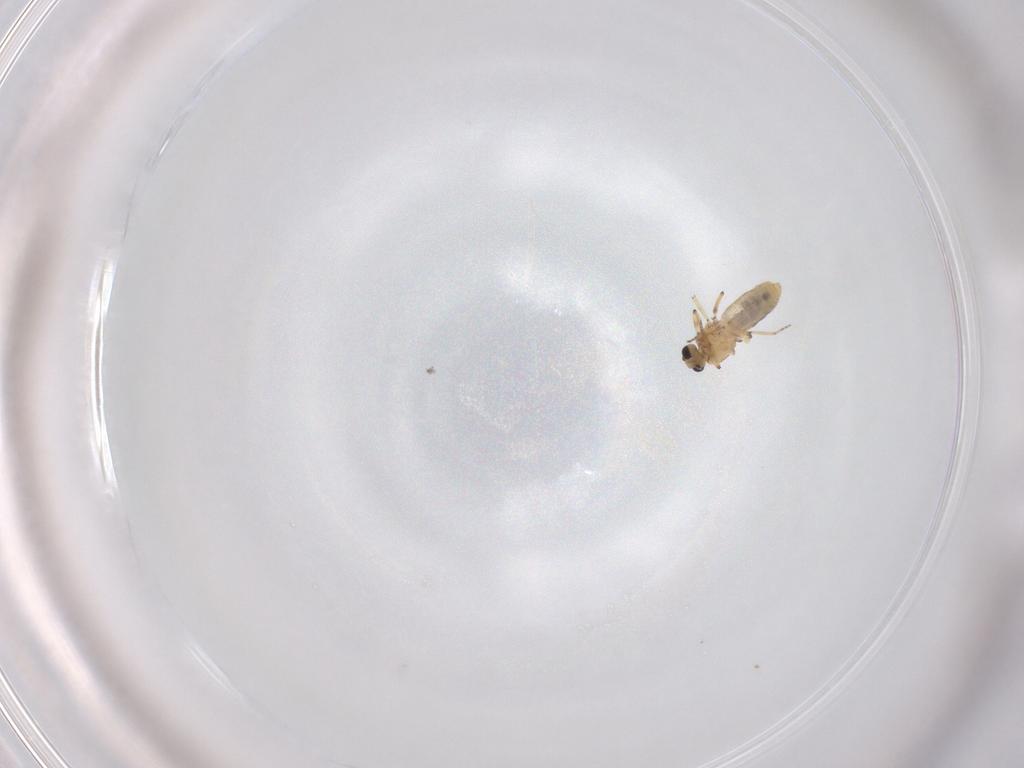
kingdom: Animalia
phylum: Arthropoda
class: Insecta
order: Diptera
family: Ceratopogonidae
